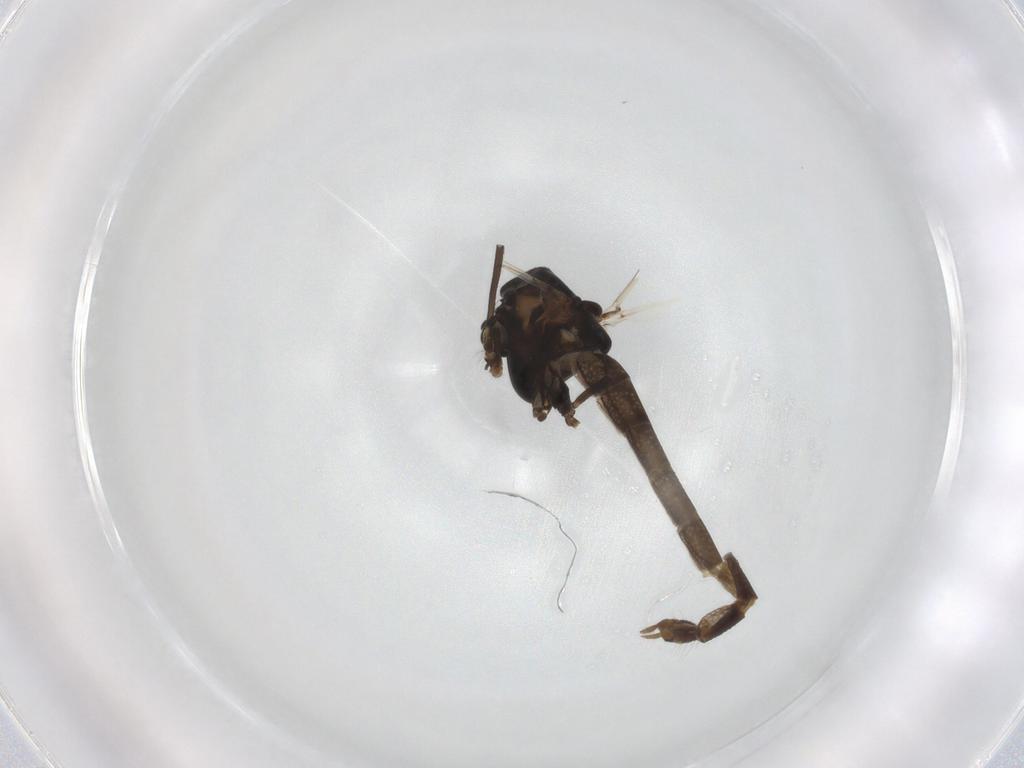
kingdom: Animalia
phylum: Arthropoda
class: Insecta
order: Diptera
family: Chironomidae
